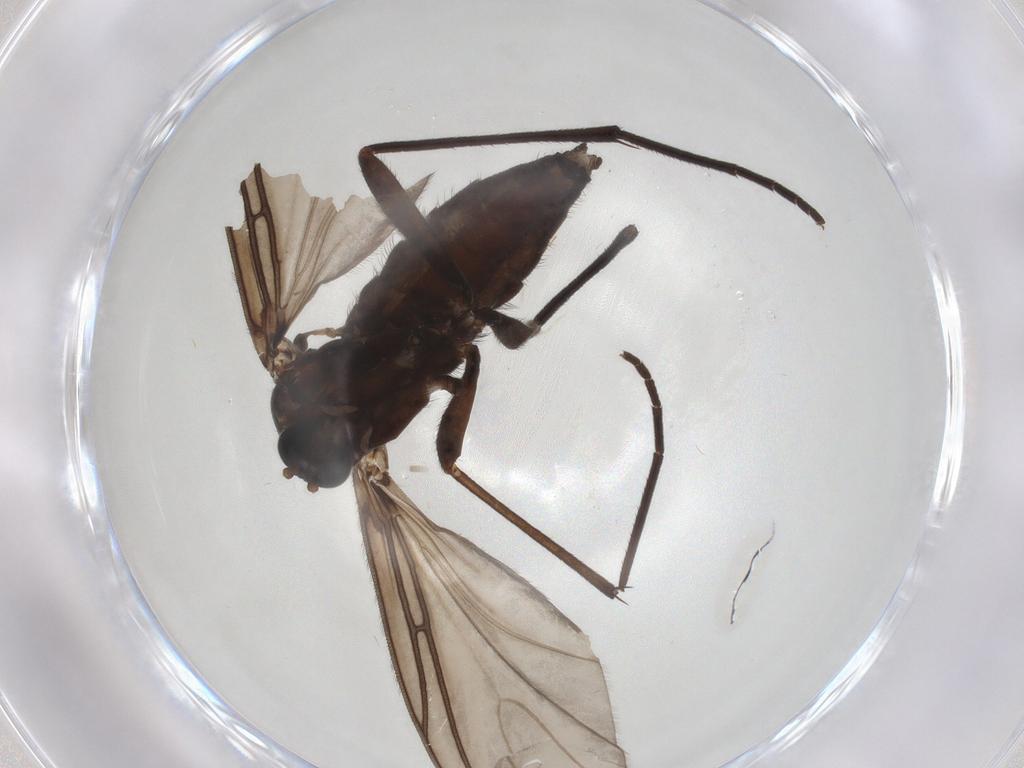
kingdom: Animalia
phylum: Arthropoda
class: Insecta
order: Diptera
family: Sciaridae
